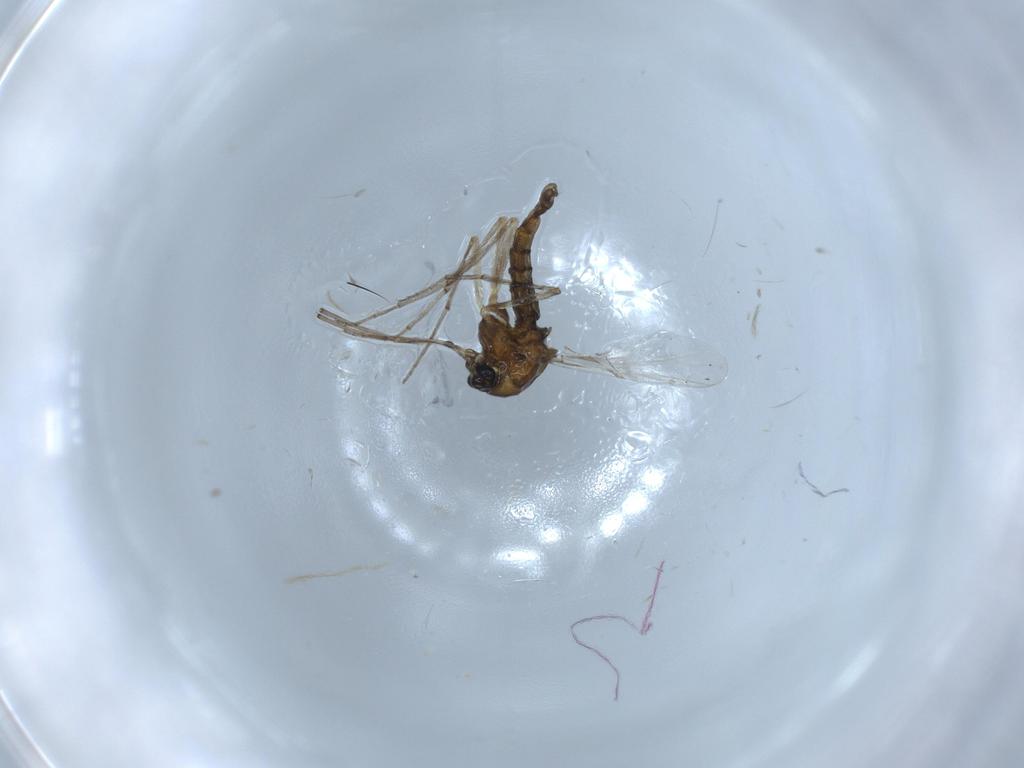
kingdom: Animalia
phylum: Arthropoda
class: Insecta
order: Diptera
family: Chironomidae
